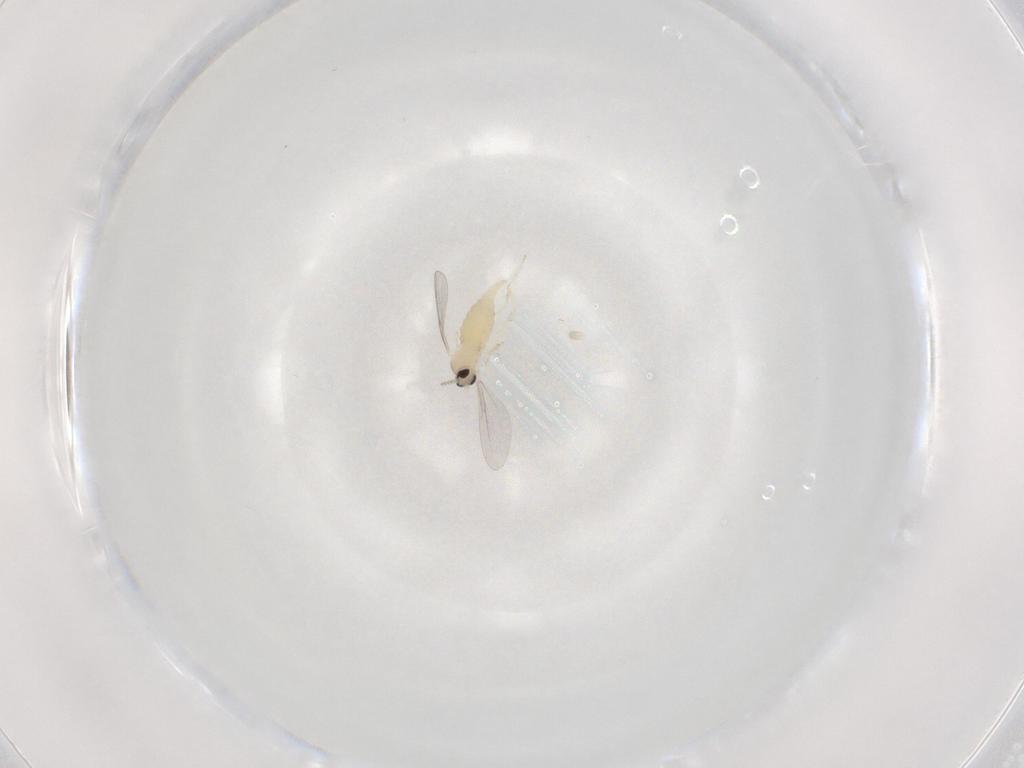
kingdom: Animalia
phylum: Arthropoda
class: Insecta
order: Diptera
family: Cecidomyiidae
